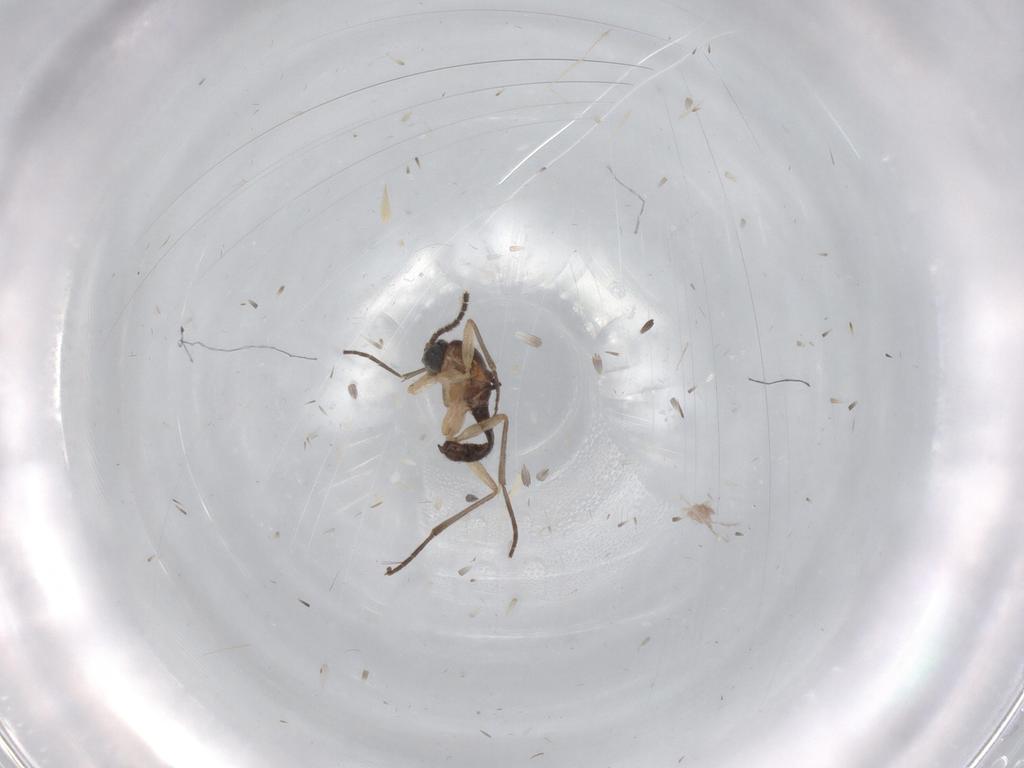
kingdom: Animalia
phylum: Arthropoda
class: Insecta
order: Diptera
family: Sciaridae
